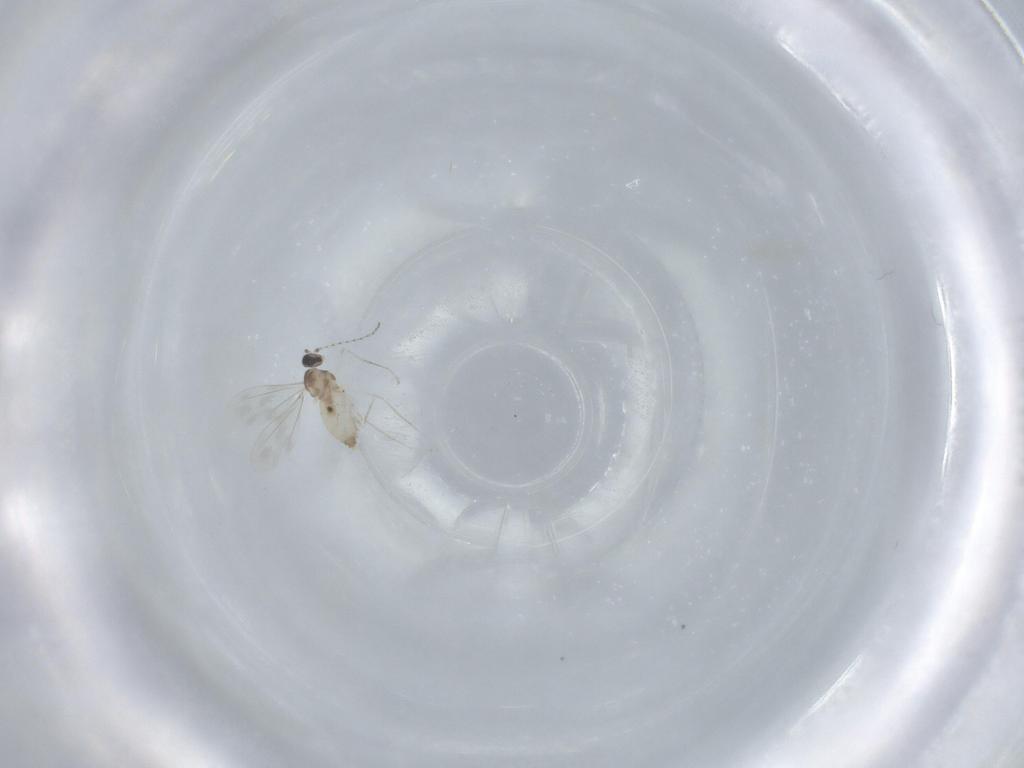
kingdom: Animalia
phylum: Arthropoda
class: Insecta
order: Diptera
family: Cecidomyiidae
